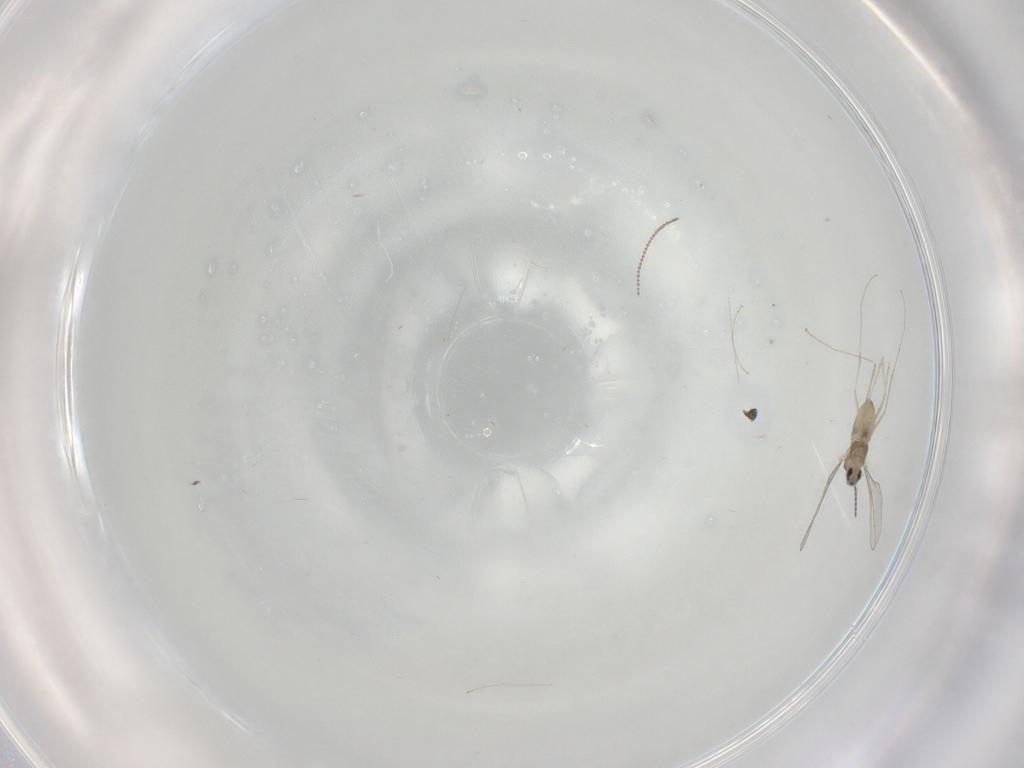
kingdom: Animalia
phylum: Arthropoda
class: Insecta
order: Diptera
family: Cecidomyiidae
